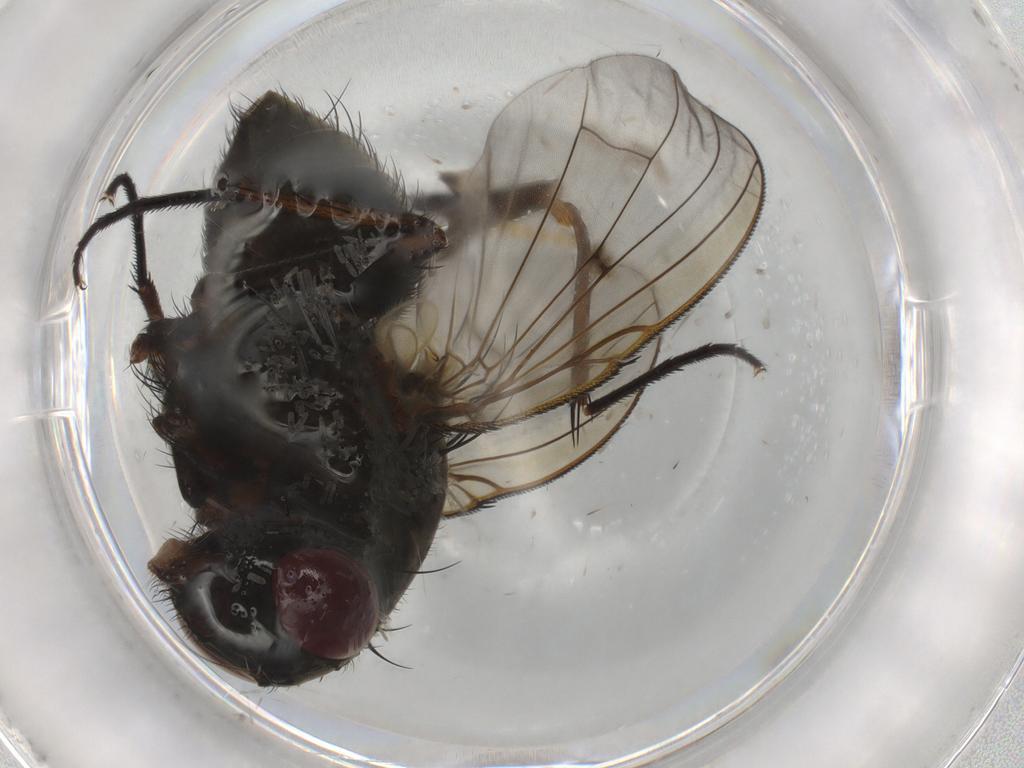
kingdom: Animalia
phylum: Arthropoda
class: Insecta
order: Diptera
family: Muscidae
